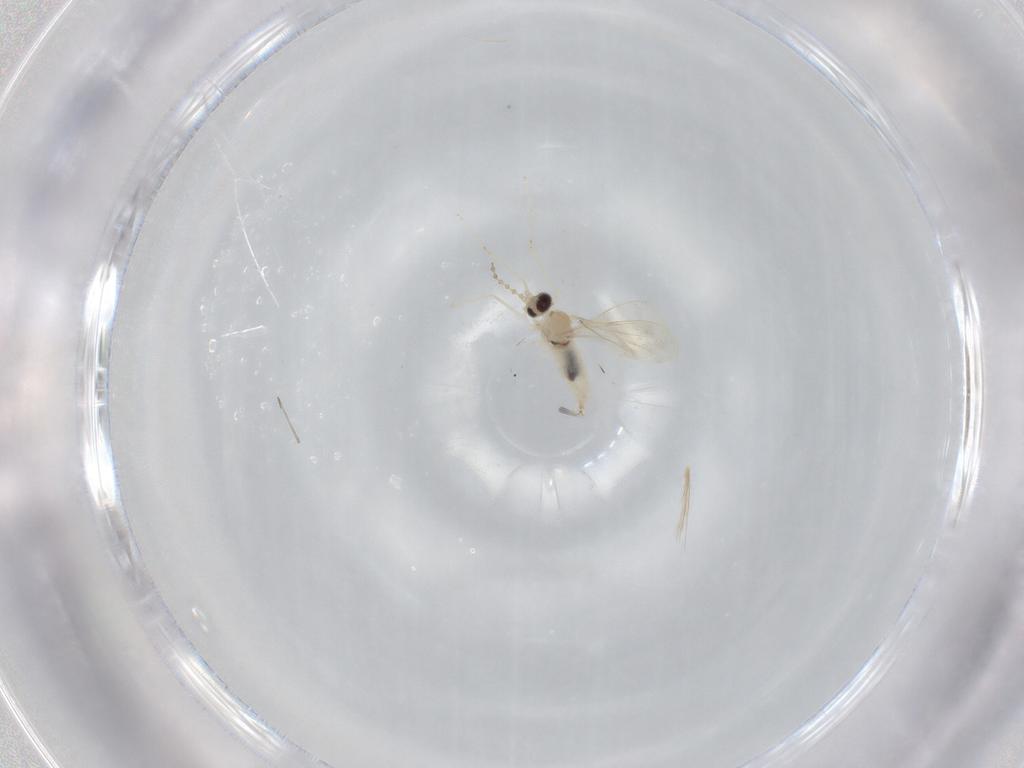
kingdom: Animalia
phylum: Arthropoda
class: Insecta
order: Diptera
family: Cecidomyiidae
